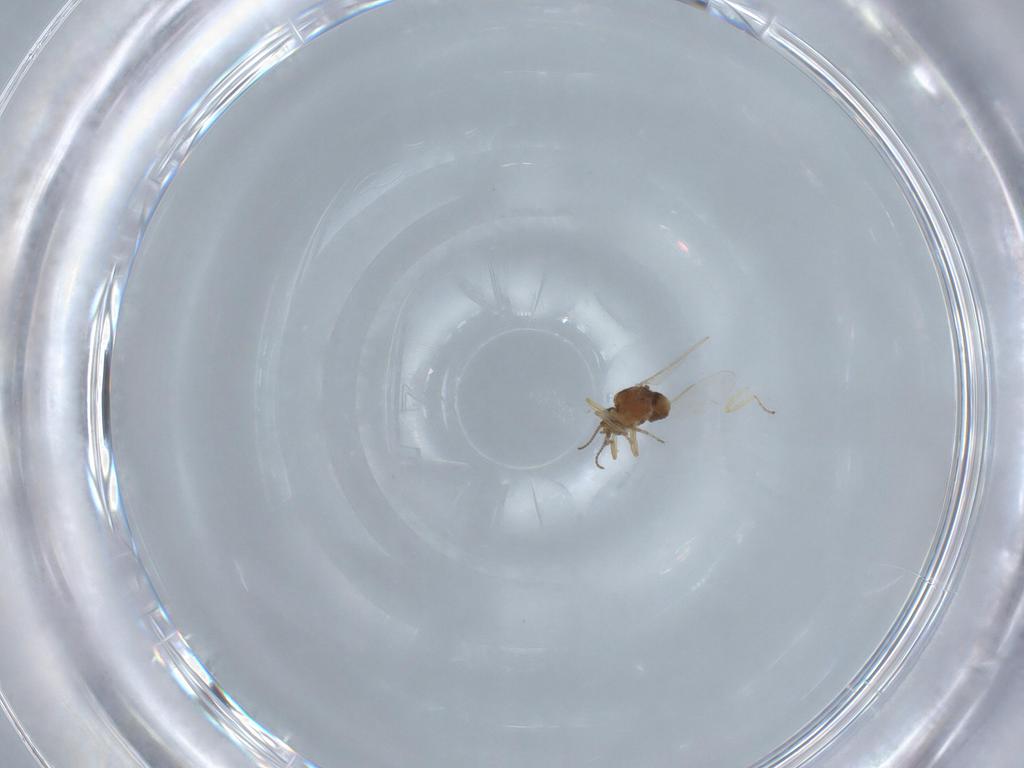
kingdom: Animalia
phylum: Arthropoda
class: Insecta
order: Diptera
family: Ceratopogonidae
